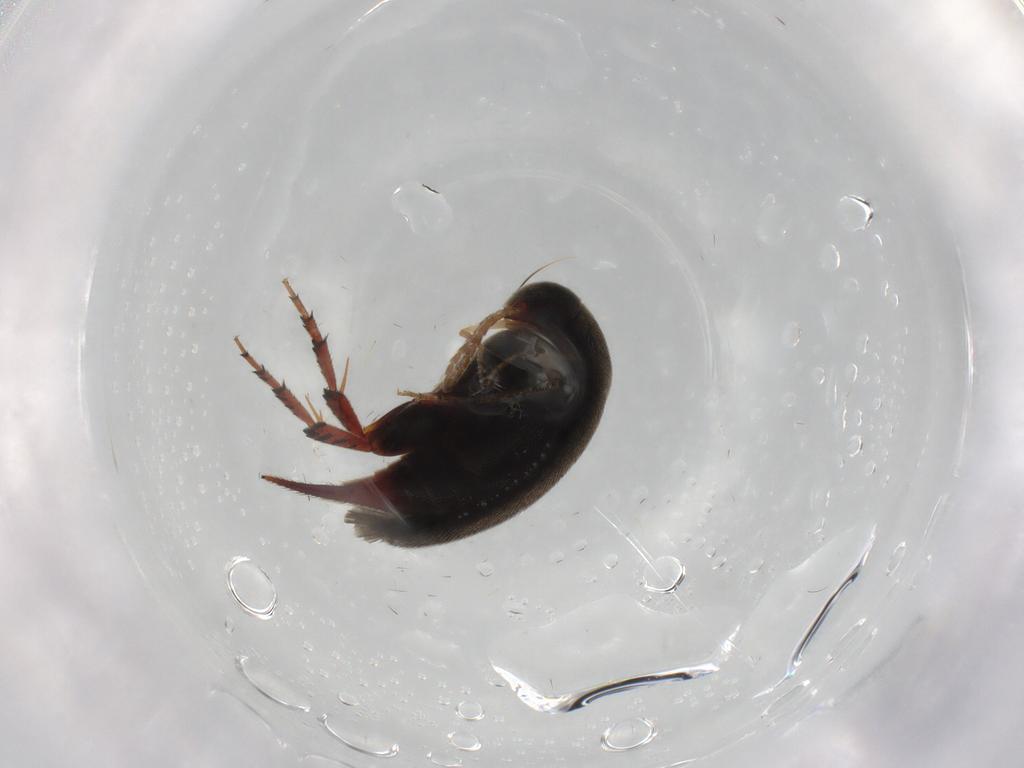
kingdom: Animalia
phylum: Arthropoda
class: Insecta
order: Coleoptera
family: Mordellidae
